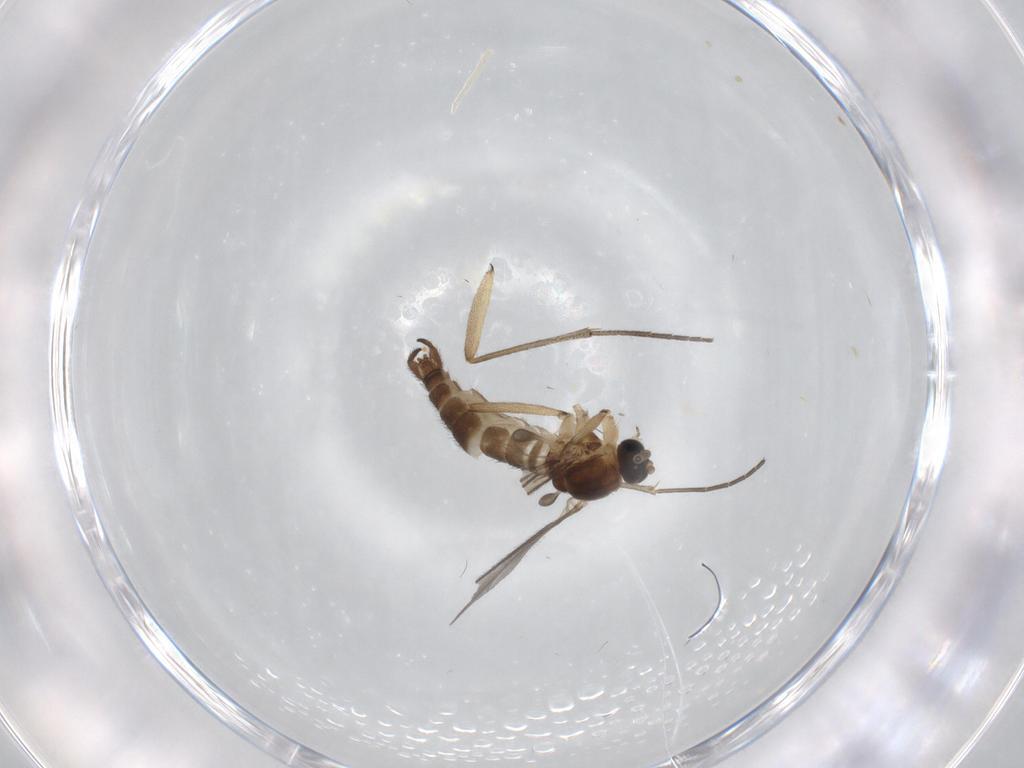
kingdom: Animalia
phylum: Arthropoda
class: Insecta
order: Diptera
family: Sciaridae
